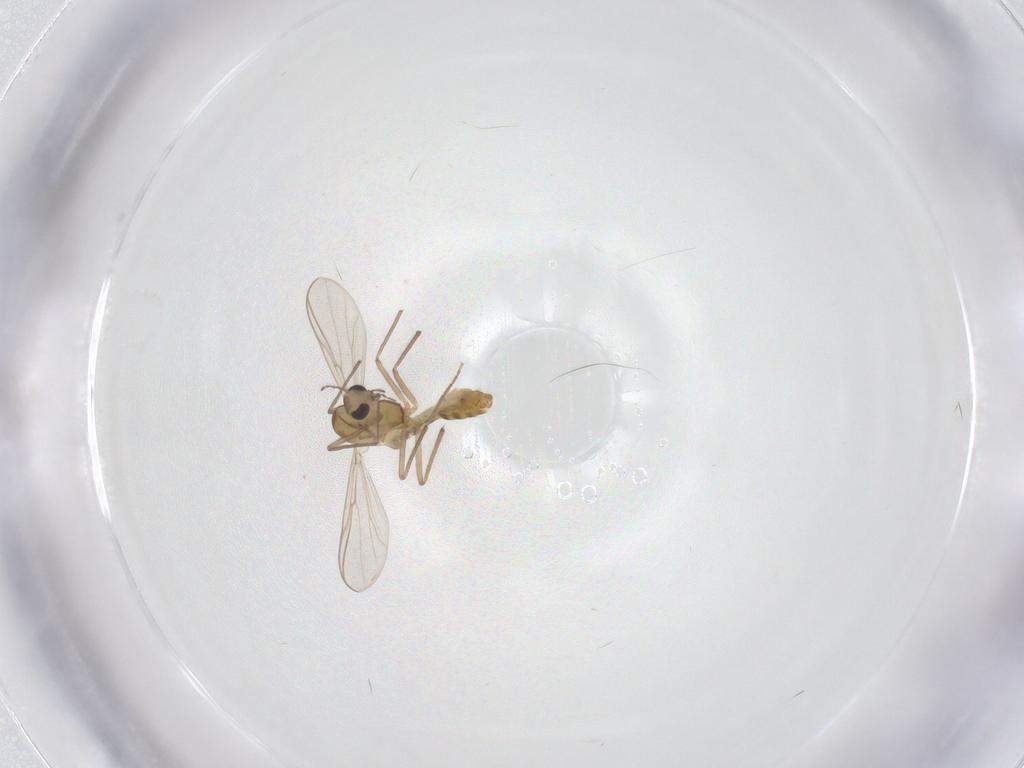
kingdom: Animalia
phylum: Arthropoda
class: Insecta
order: Diptera
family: Chironomidae
